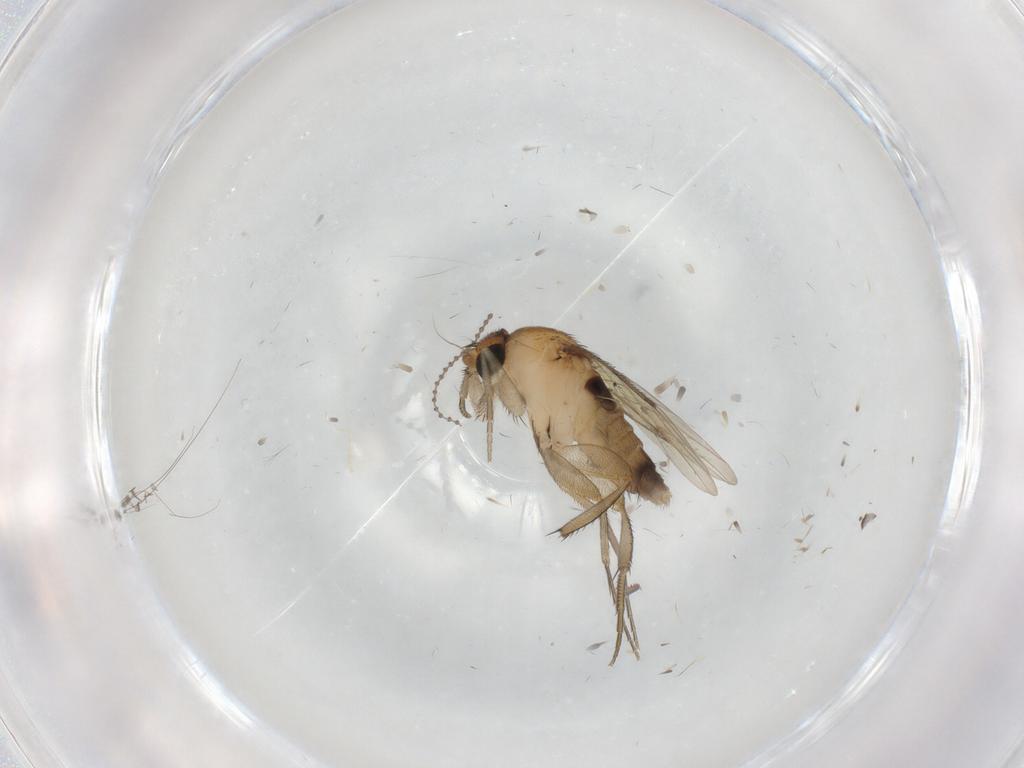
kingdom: Animalia
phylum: Arthropoda
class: Insecta
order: Diptera
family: Phoridae
